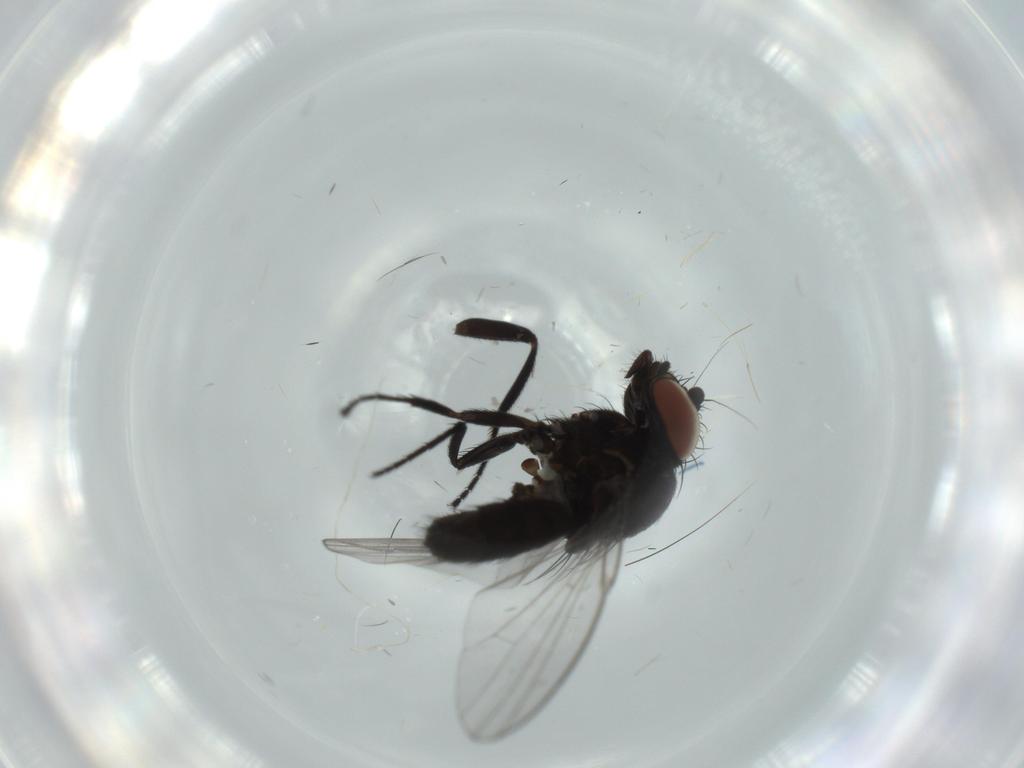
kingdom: Animalia
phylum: Arthropoda
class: Insecta
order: Diptera
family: Milichiidae
